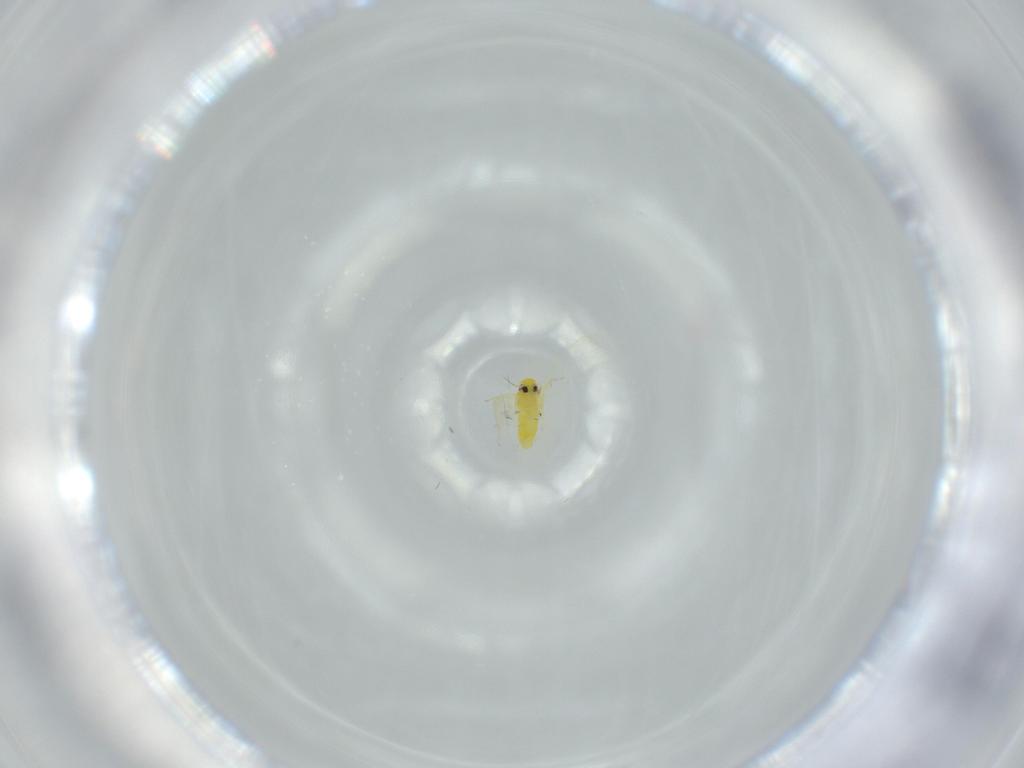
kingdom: Animalia
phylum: Arthropoda
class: Insecta
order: Hemiptera
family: Aleyrodidae
